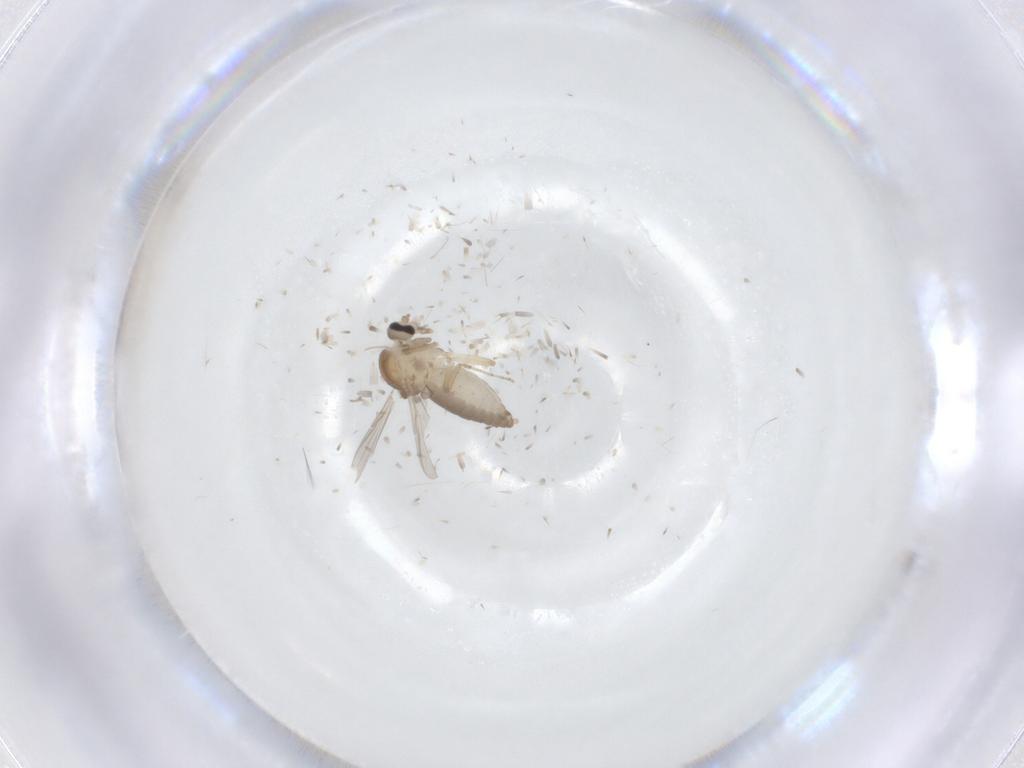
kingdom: Animalia
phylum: Arthropoda
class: Insecta
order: Diptera
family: Ceratopogonidae
